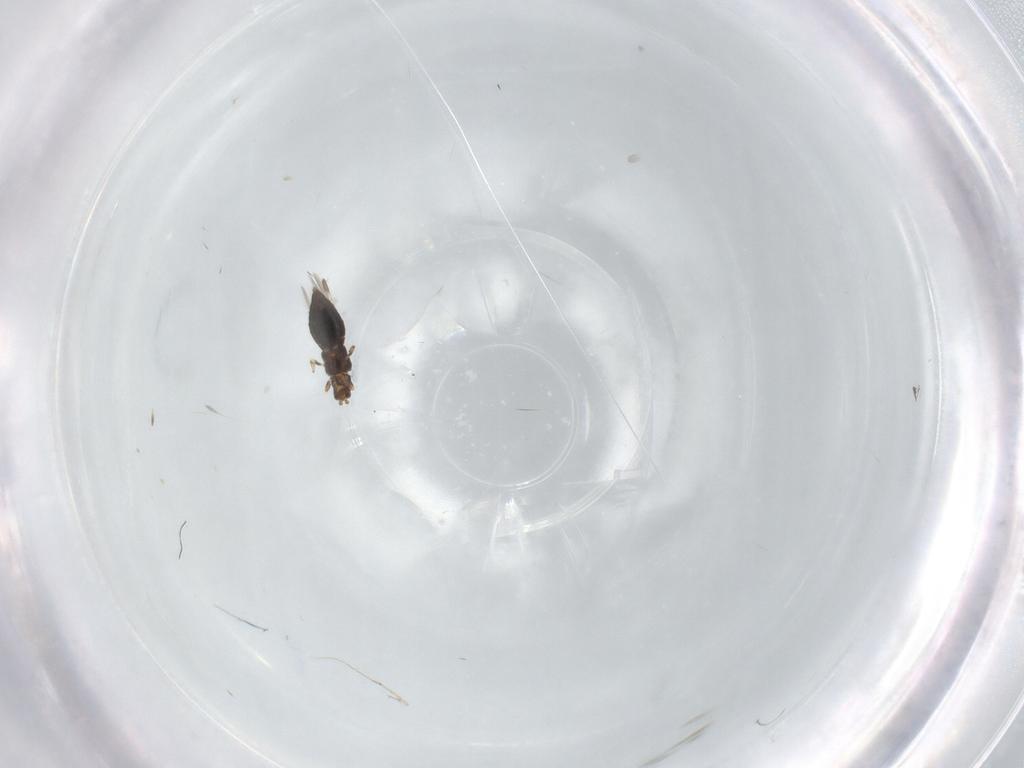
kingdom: Animalia
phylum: Arthropoda
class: Insecta
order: Thysanoptera
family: Thripidae
